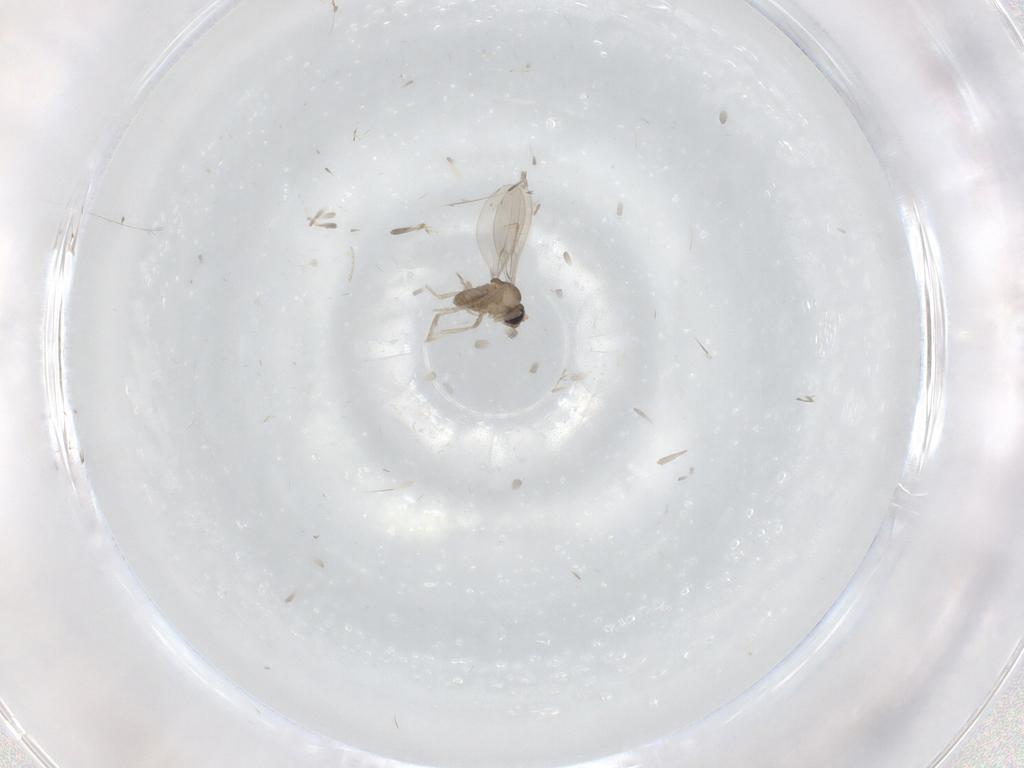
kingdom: Animalia
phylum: Arthropoda
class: Insecta
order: Diptera
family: Cecidomyiidae
